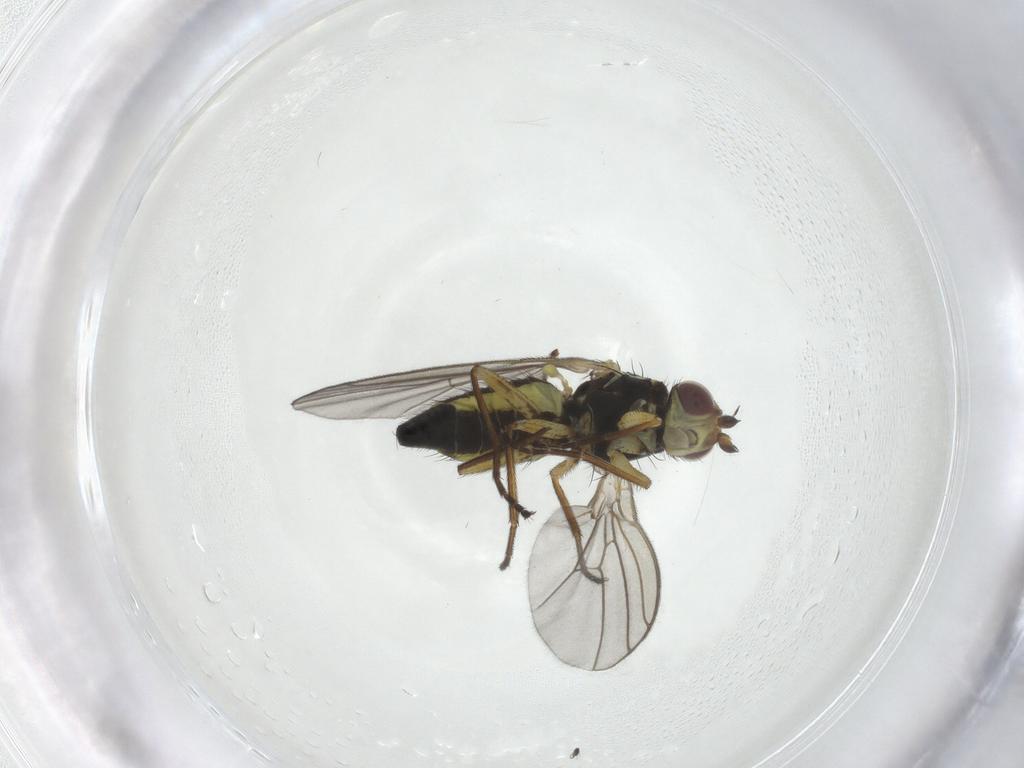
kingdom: Animalia
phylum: Arthropoda
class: Insecta
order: Diptera
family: Agromyzidae
